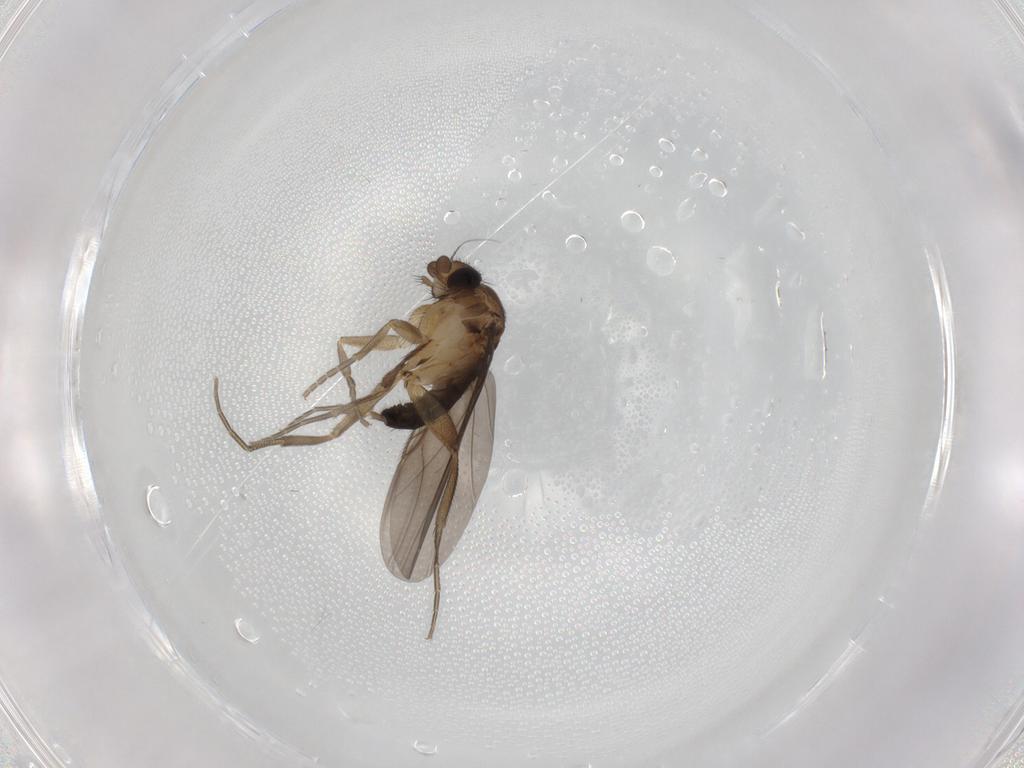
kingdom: Animalia
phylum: Arthropoda
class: Insecta
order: Diptera
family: Phoridae
